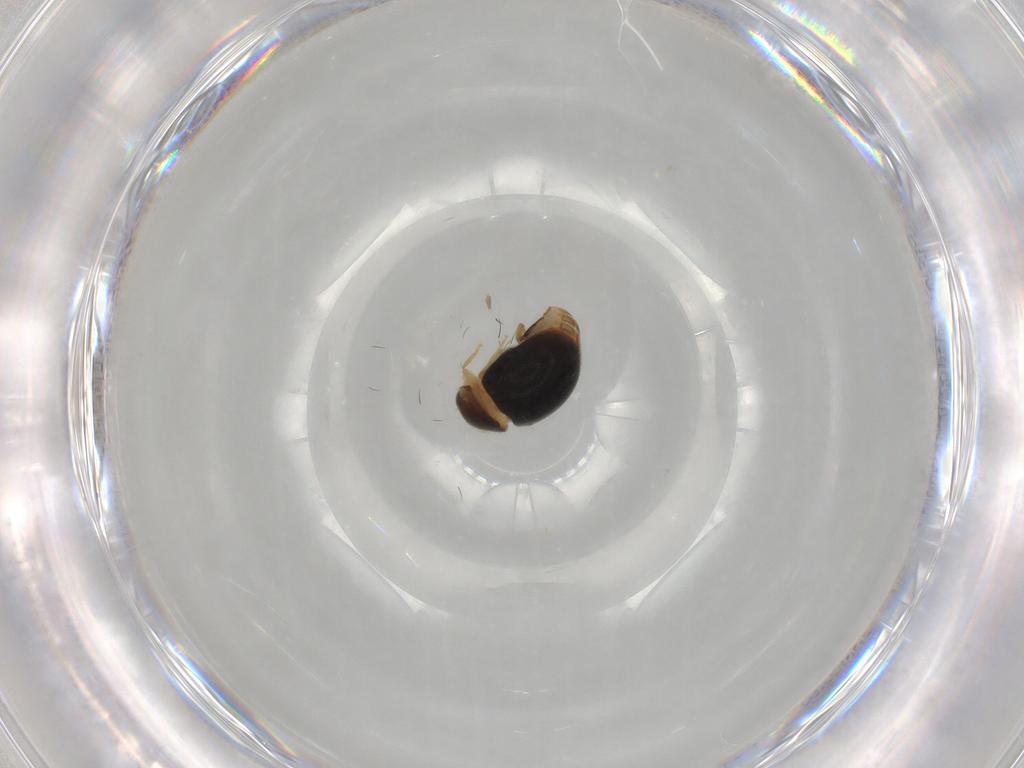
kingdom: Animalia
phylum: Arthropoda
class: Insecta
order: Coleoptera
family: Coccinellidae
